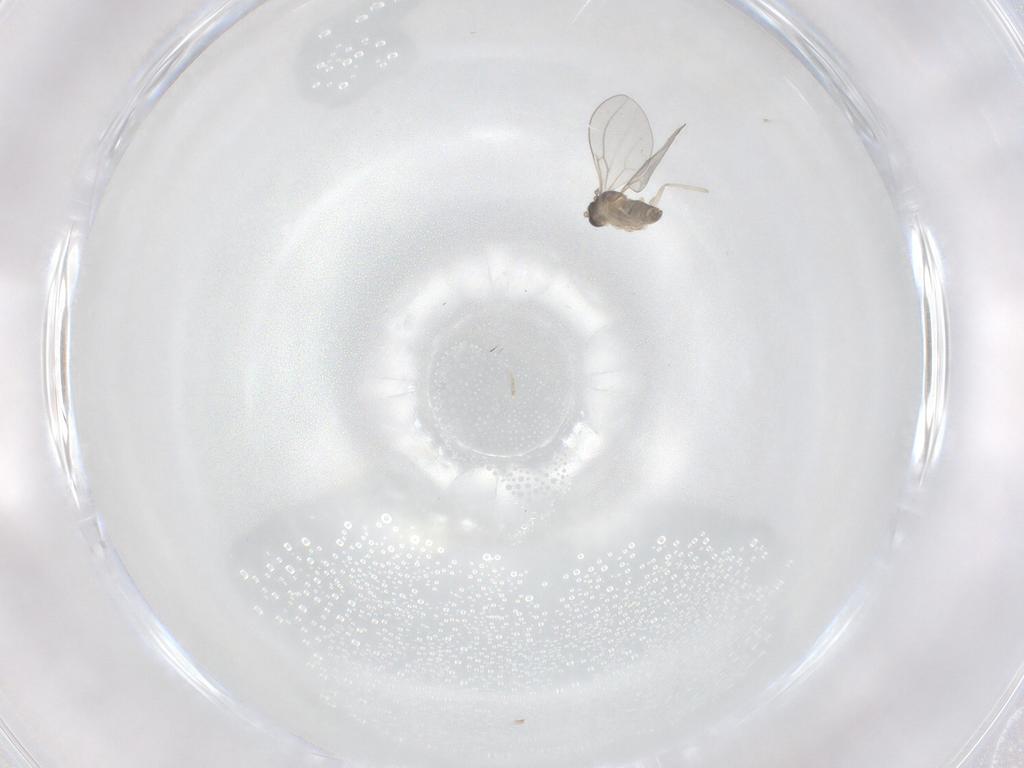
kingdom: Animalia
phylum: Arthropoda
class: Insecta
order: Diptera
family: Cecidomyiidae
